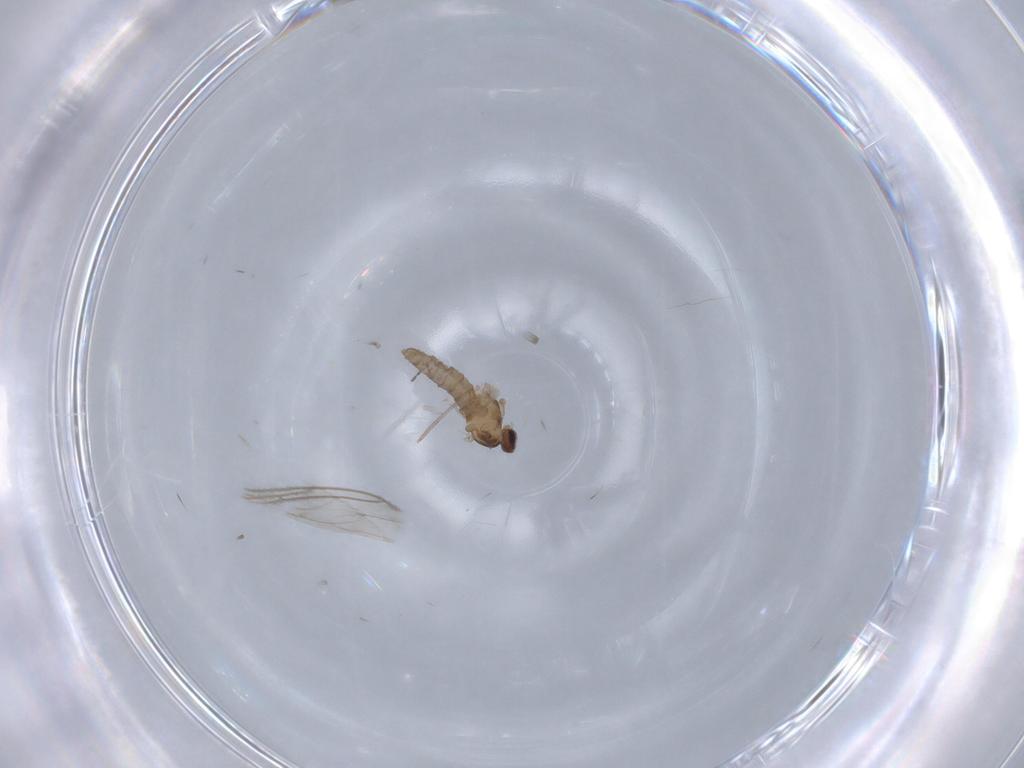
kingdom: Animalia
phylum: Arthropoda
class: Insecta
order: Diptera
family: Cecidomyiidae
